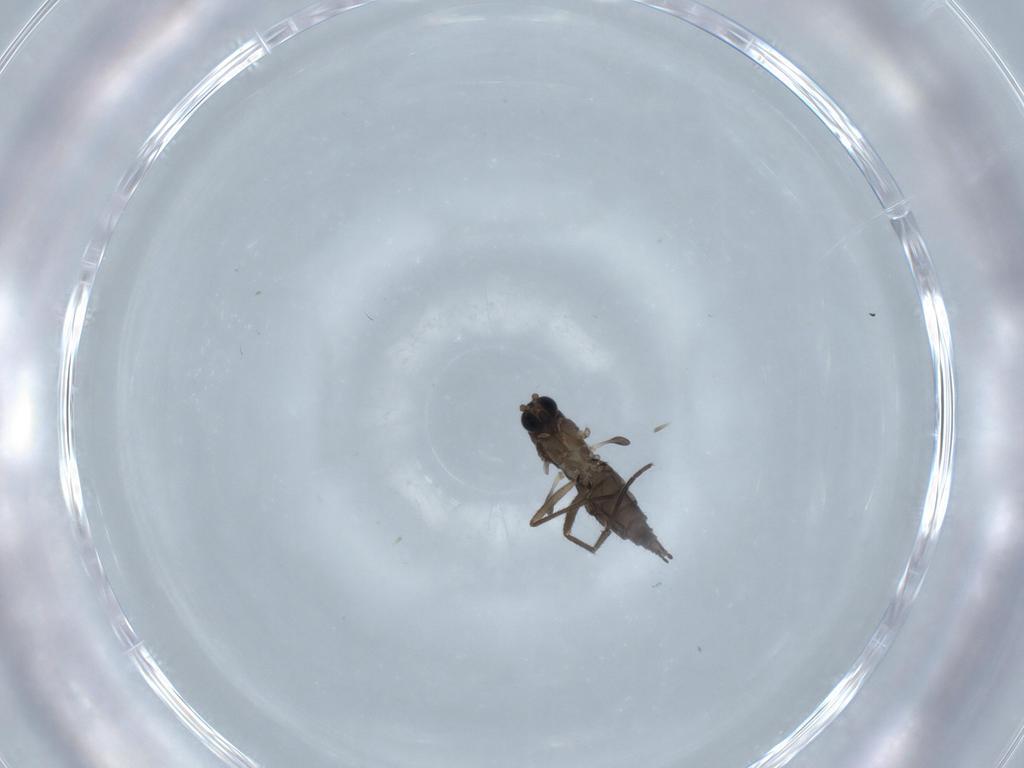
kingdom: Animalia
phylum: Arthropoda
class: Insecta
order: Diptera
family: Sciaridae
